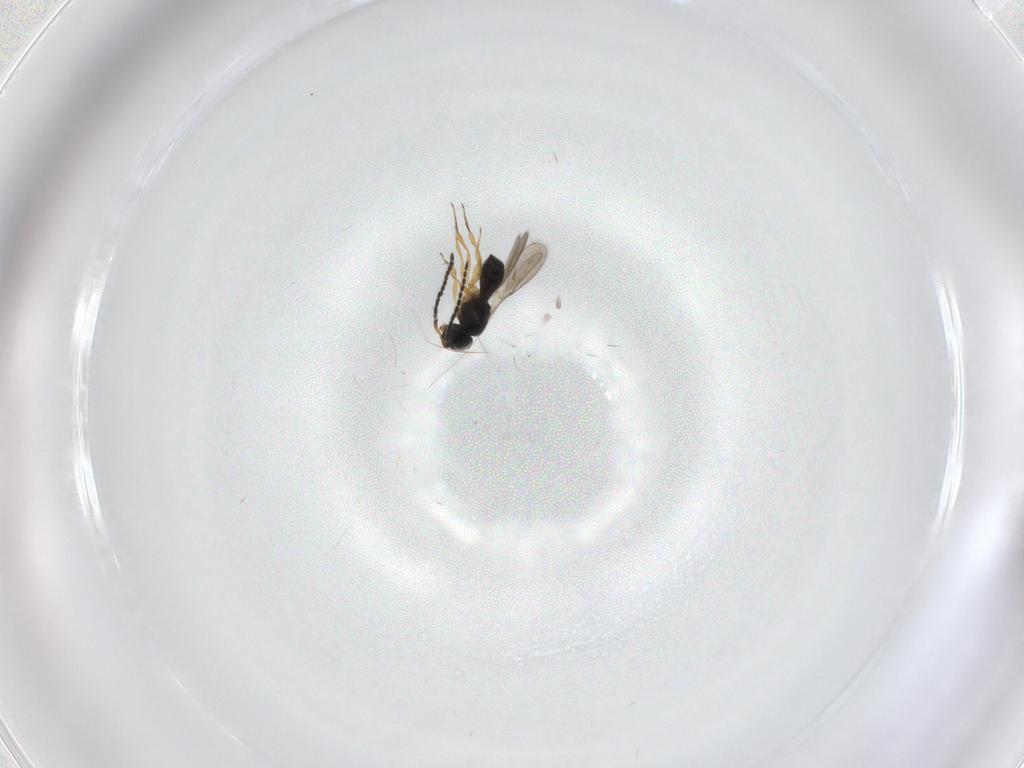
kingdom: Animalia
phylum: Arthropoda
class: Insecta
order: Hymenoptera
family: Scelionidae
